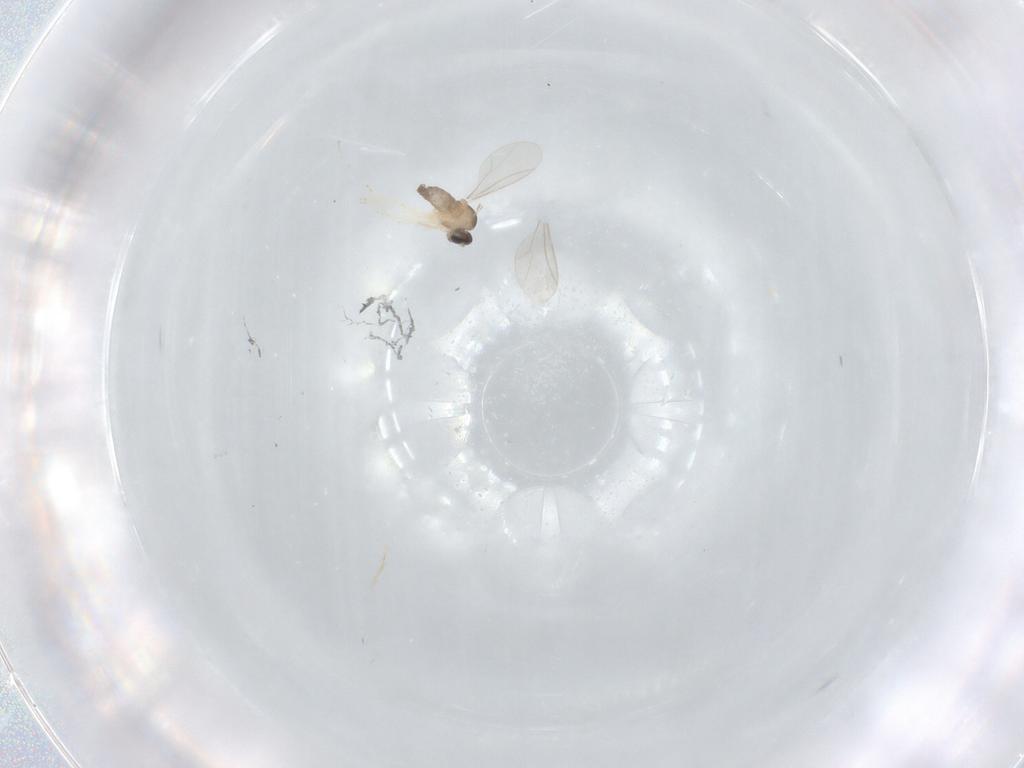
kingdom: Animalia
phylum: Arthropoda
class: Insecta
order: Diptera
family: Cecidomyiidae
